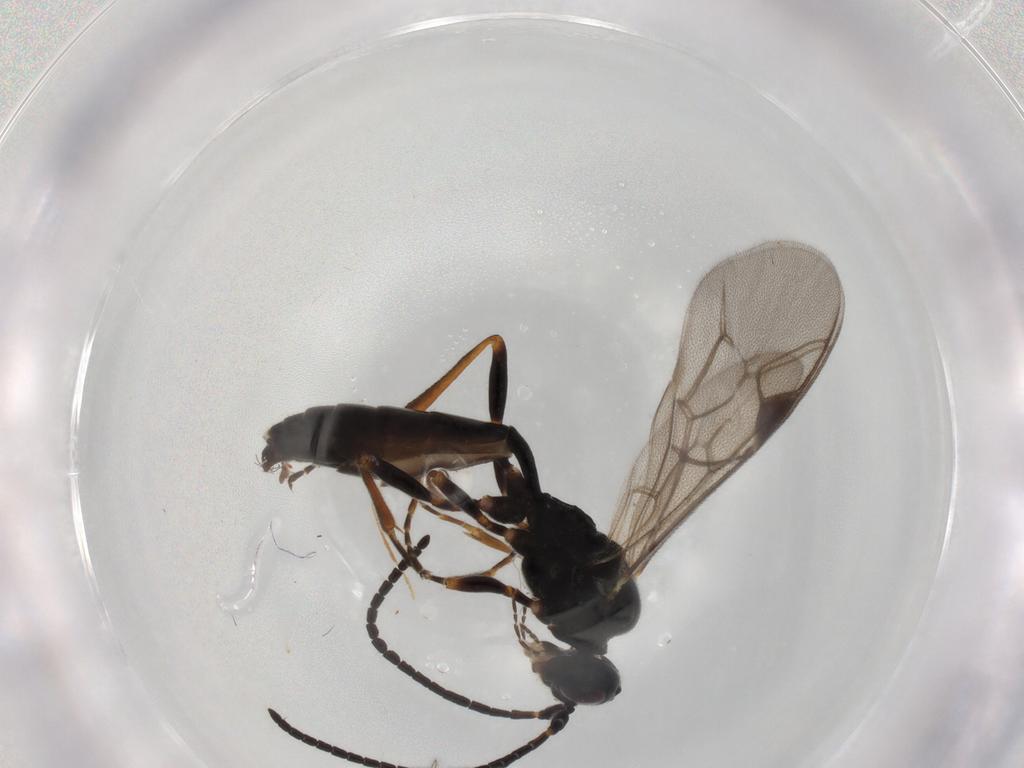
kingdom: Animalia
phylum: Arthropoda
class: Insecta
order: Hymenoptera
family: Ichneumonidae
